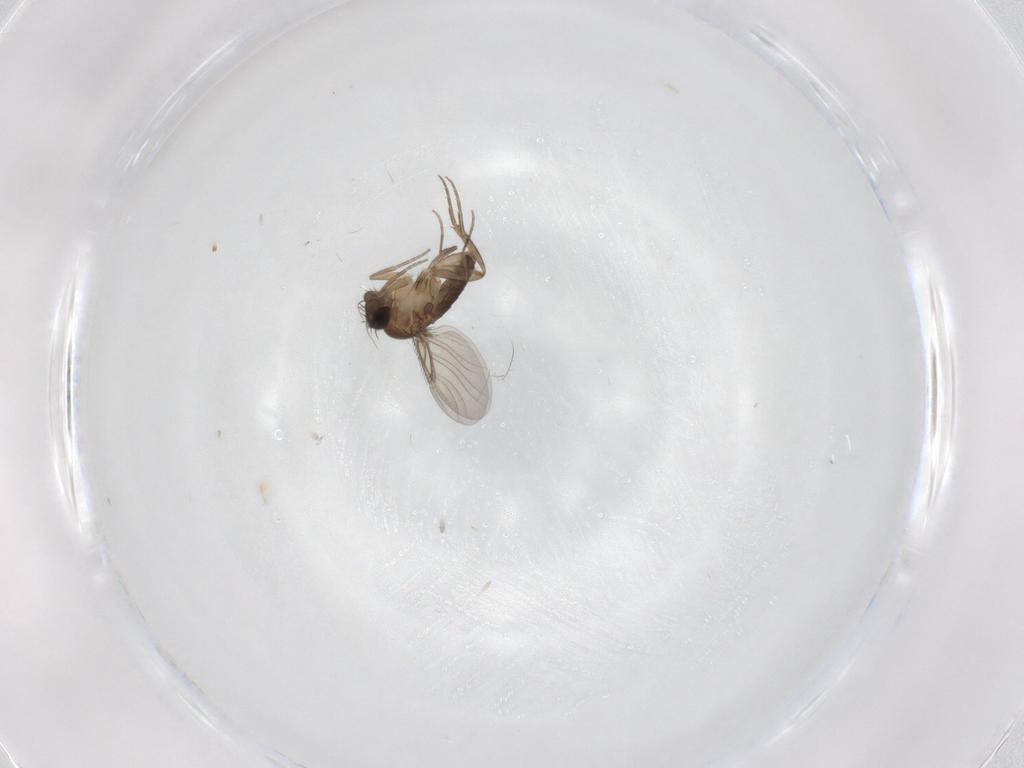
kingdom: Animalia
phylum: Arthropoda
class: Insecta
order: Diptera
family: Phoridae
